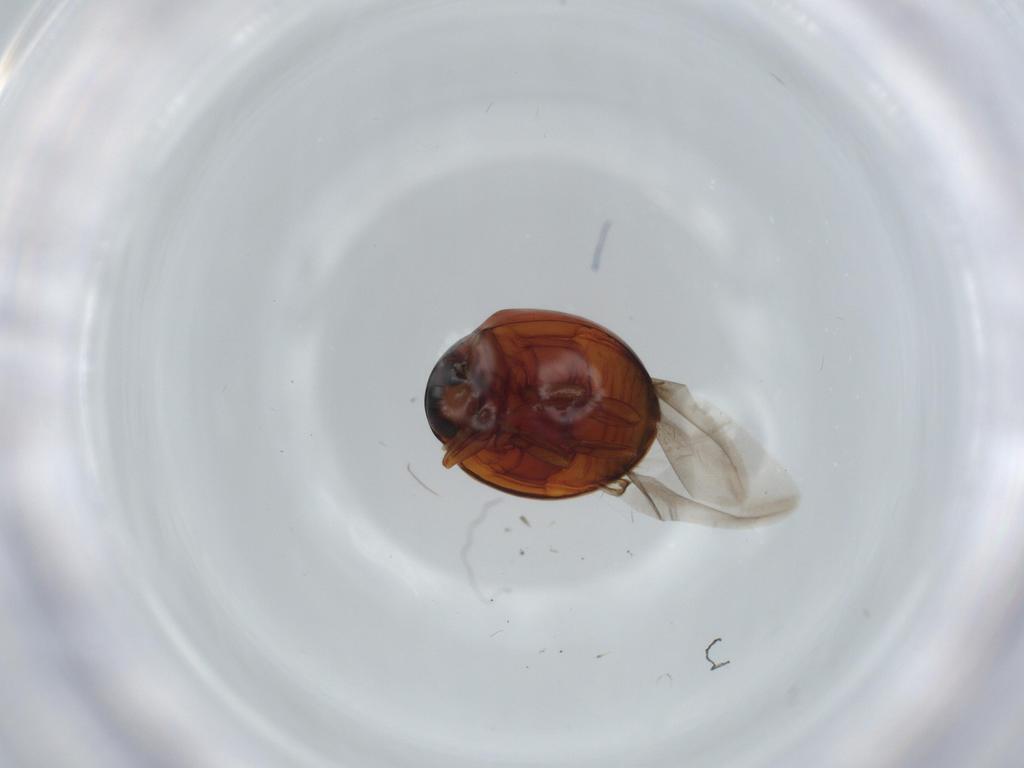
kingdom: Animalia
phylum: Arthropoda
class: Insecta
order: Coleoptera
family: Coccinellidae
